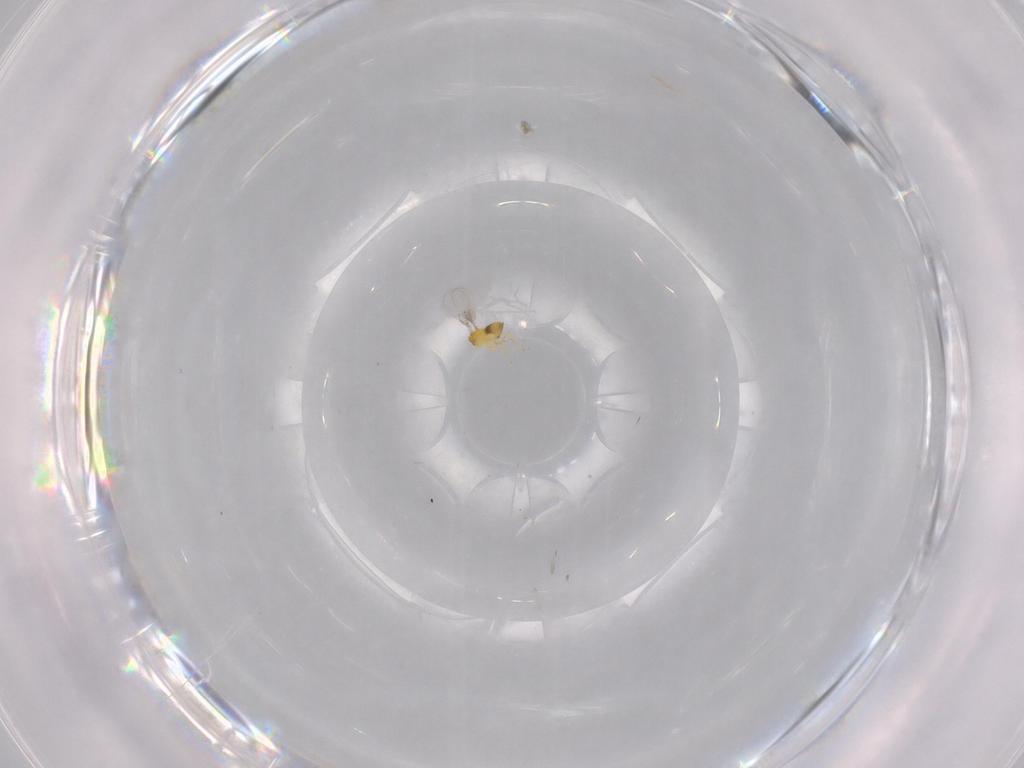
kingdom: Animalia
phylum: Arthropoda
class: Insecta
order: Hymenoptera
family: Trichogrammatidae
